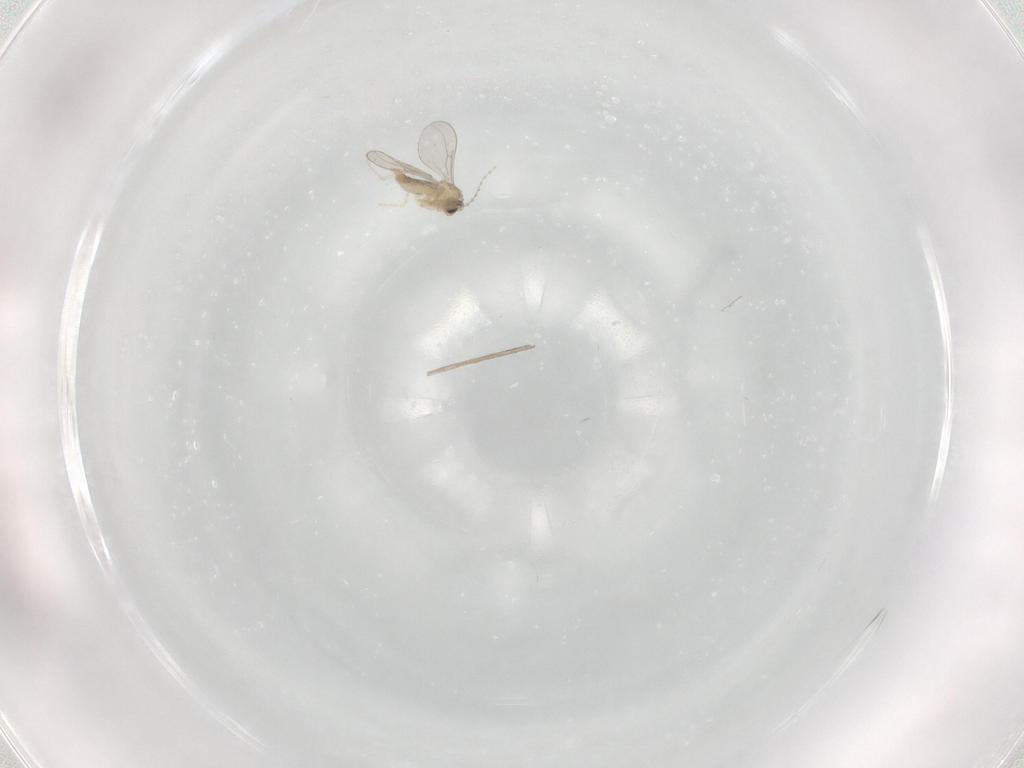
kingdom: Animalia
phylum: Arthropoda
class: Insecta
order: Diptera
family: Cecidomyiidae
